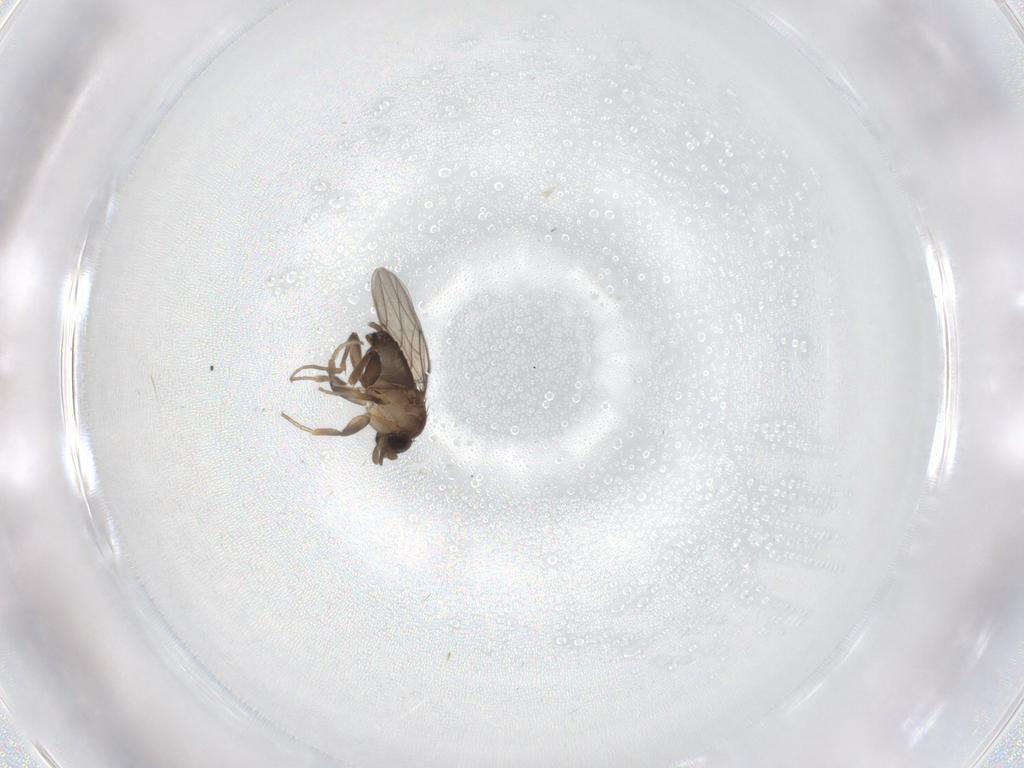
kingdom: Animalia
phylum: Arthropoda
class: Insecta
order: Diptera
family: Phoridae
